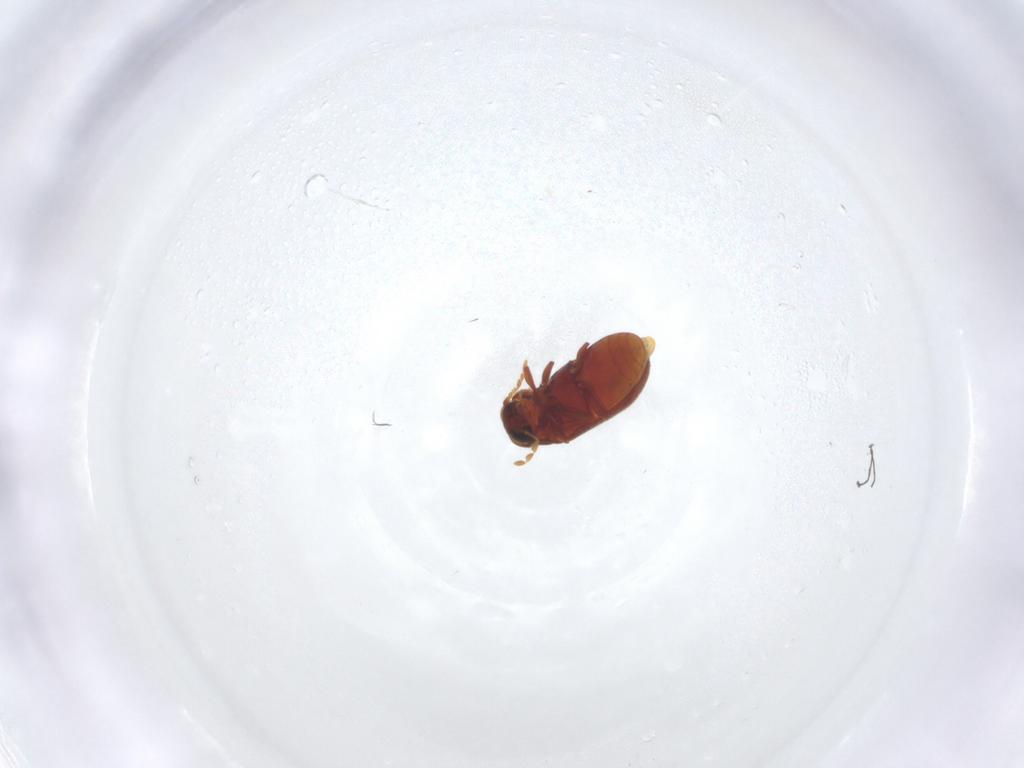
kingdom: Animalia
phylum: Arthropoda
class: Insecta
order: Coleoptera
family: Ptinidae
